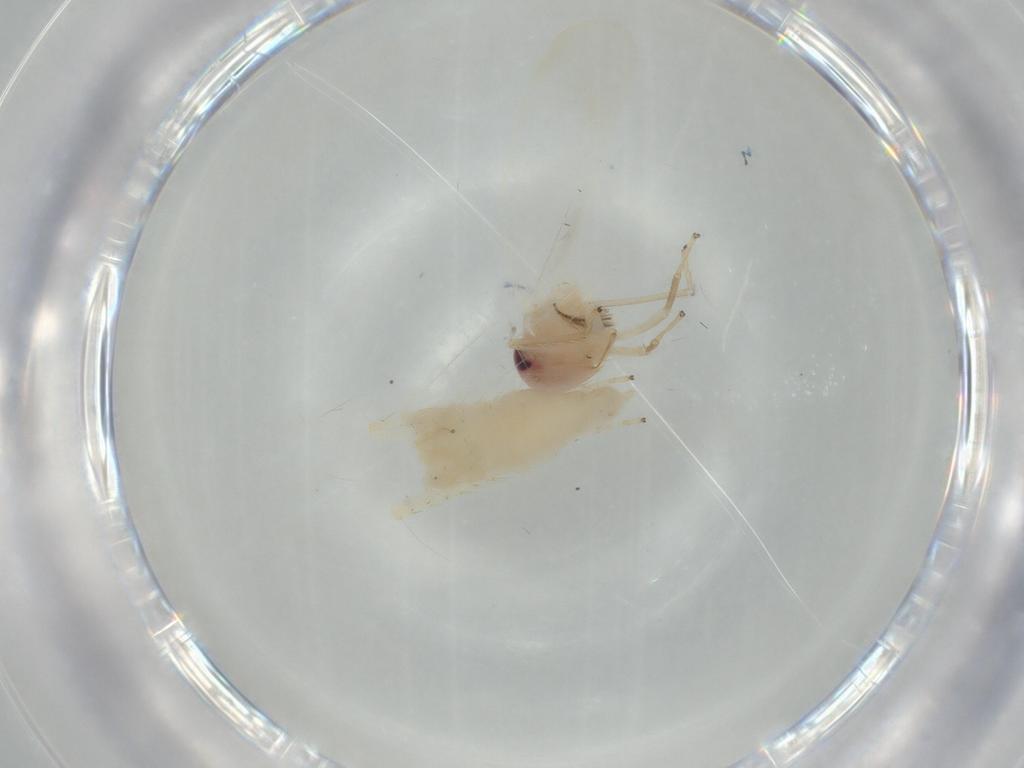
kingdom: Animalia
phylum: Arthropoda
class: Insecta
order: Hemiptera
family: Cicadellidae
